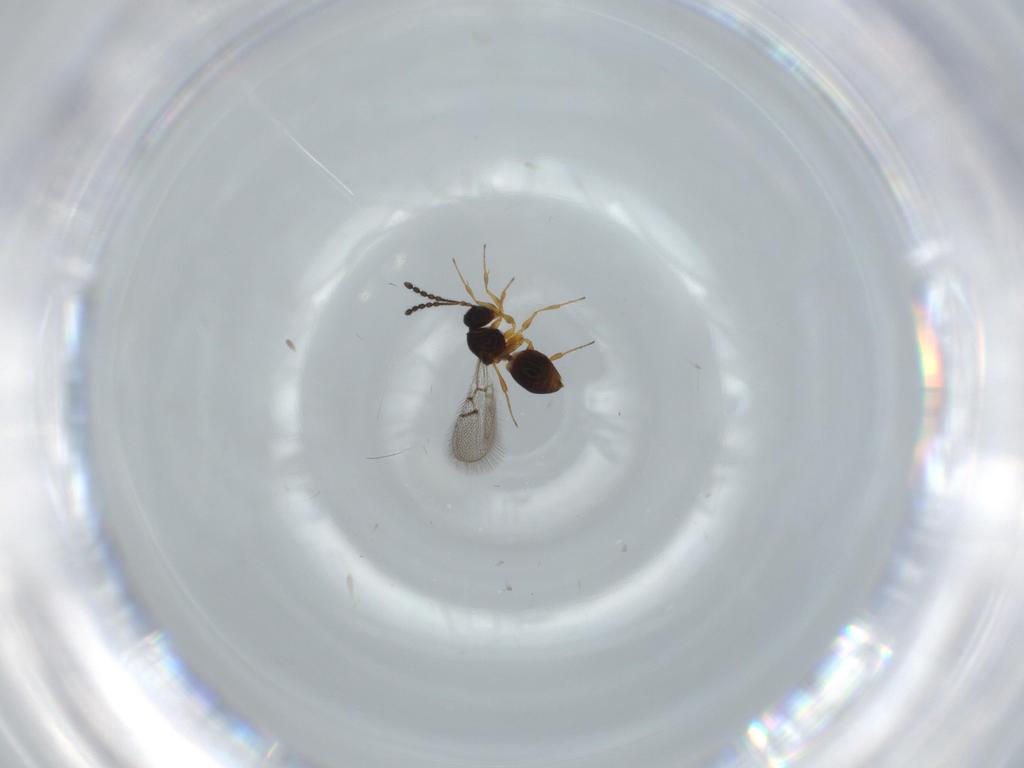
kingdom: Animalia
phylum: Arthropoda
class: Insecta
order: Hymenoptera
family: Figitidae
